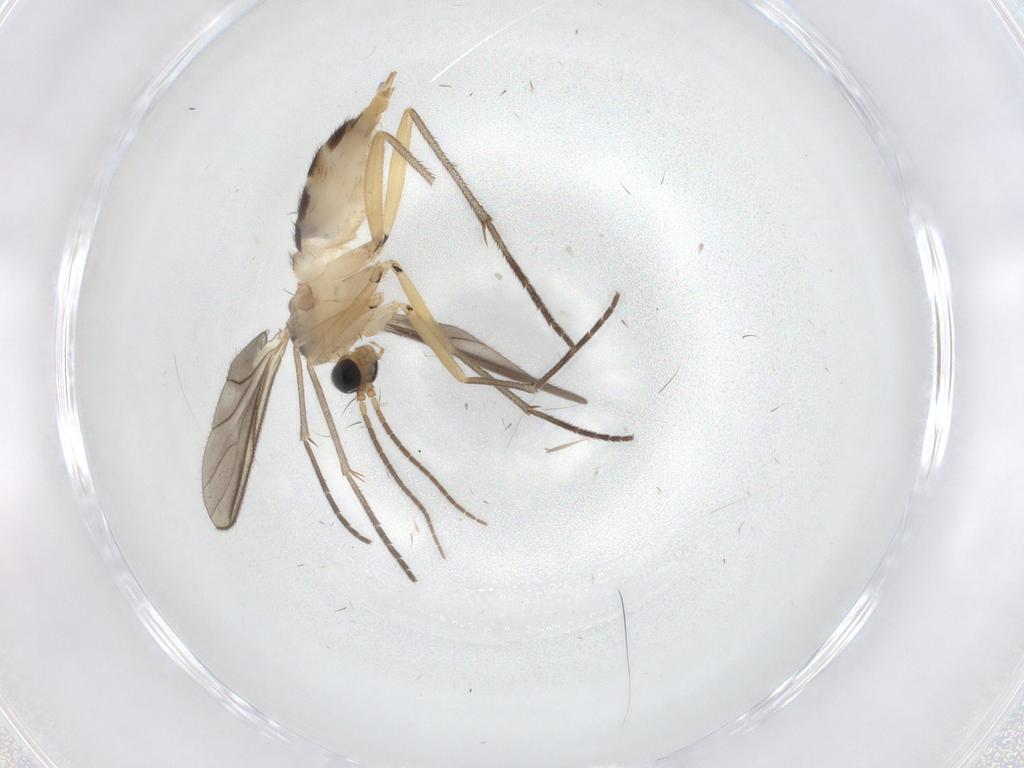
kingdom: Animalia
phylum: Arthropoda
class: Insecta
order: Diptera
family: Sciaridae
